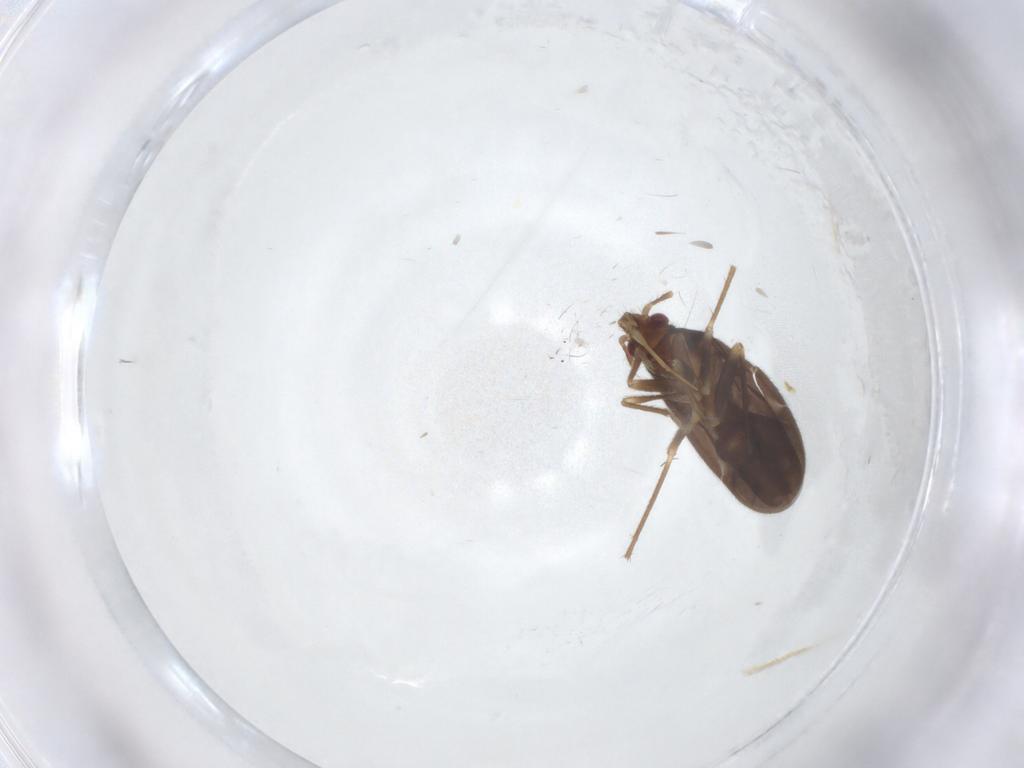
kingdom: Animalia
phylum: Arthropoda
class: Insecta
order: Hemiptera
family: Ceratocombidae
